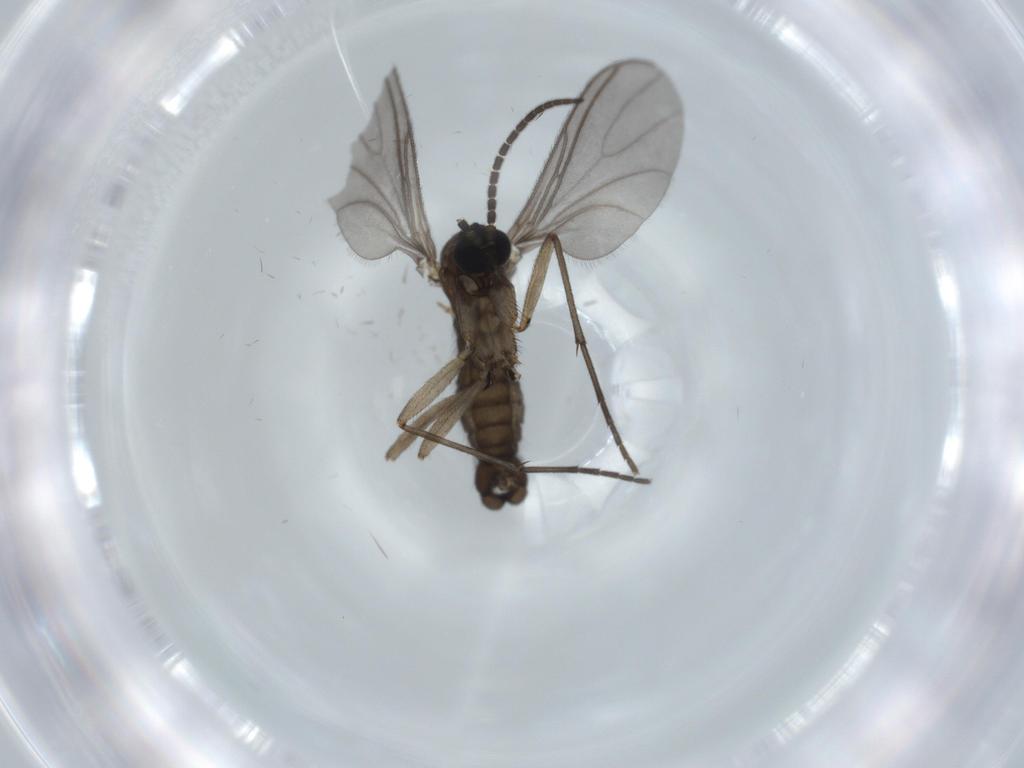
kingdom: Animalia
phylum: Arthropoda
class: Insecta
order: Diptera
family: Sciaridae
